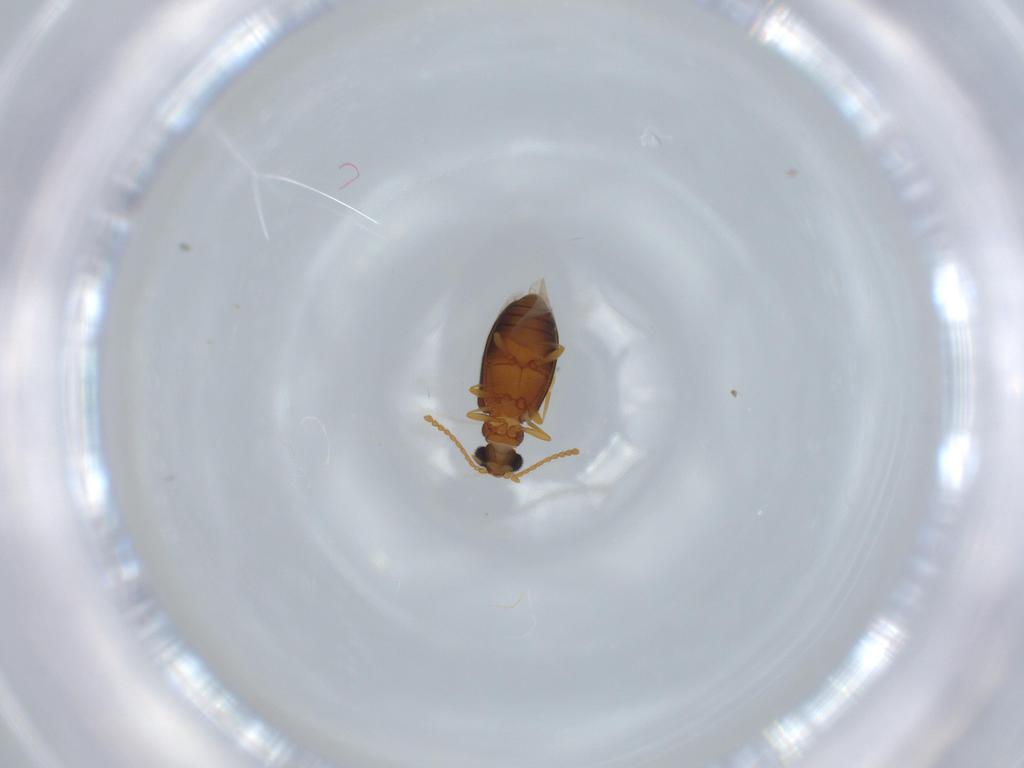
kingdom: Animalia
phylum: Arthropoda
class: Insecta
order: Coleoptera
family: Aderidae
